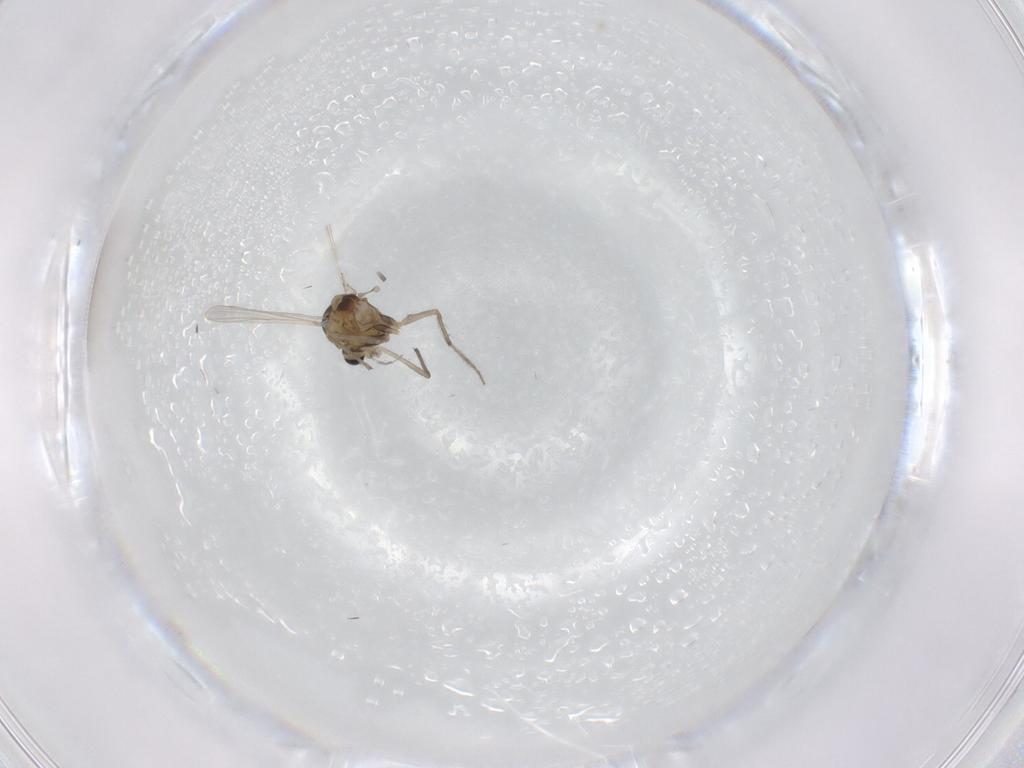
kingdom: Animalia
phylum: Arthropoda
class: Insecta
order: Diptera
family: Chironomidae
